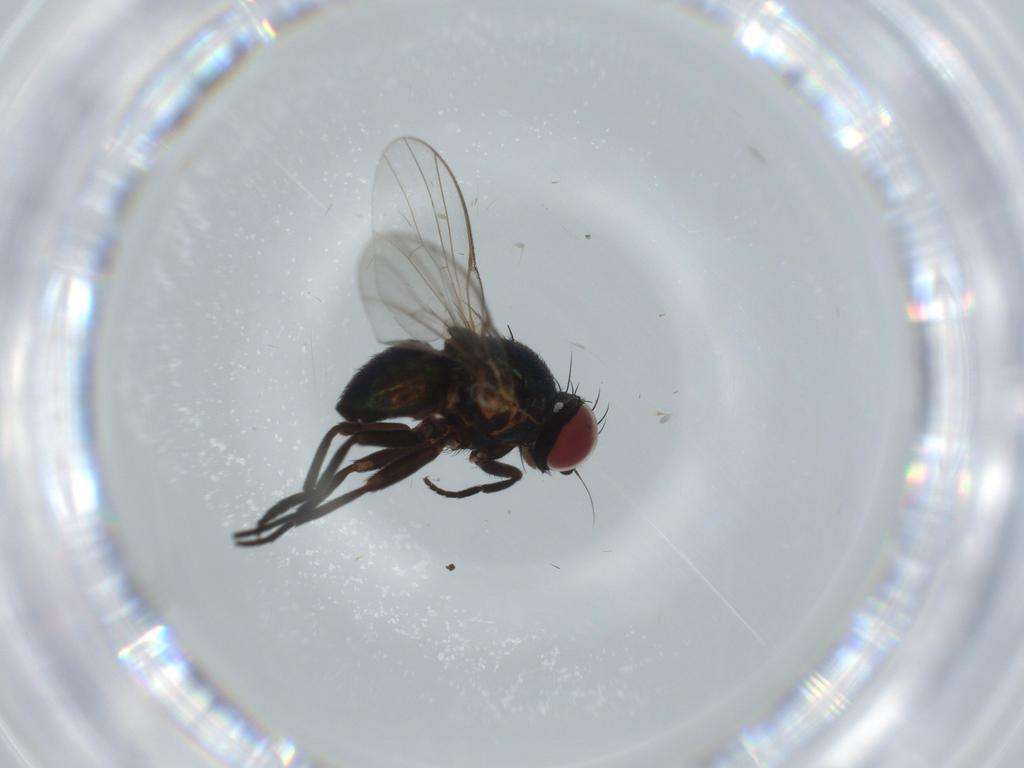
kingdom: Animalia
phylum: Arthropoda
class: Insecta
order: Diptera
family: Agromyzidae
